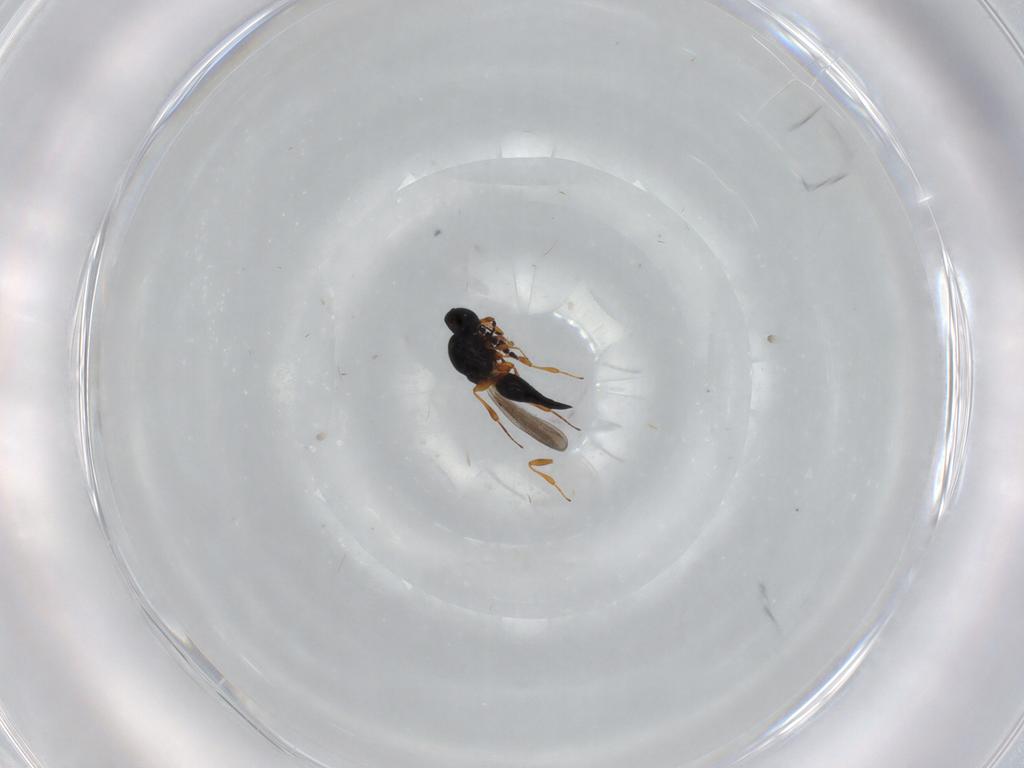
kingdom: Animalia
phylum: Arthropoda
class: Insecta
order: Hymenoptera
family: Platygastridae
